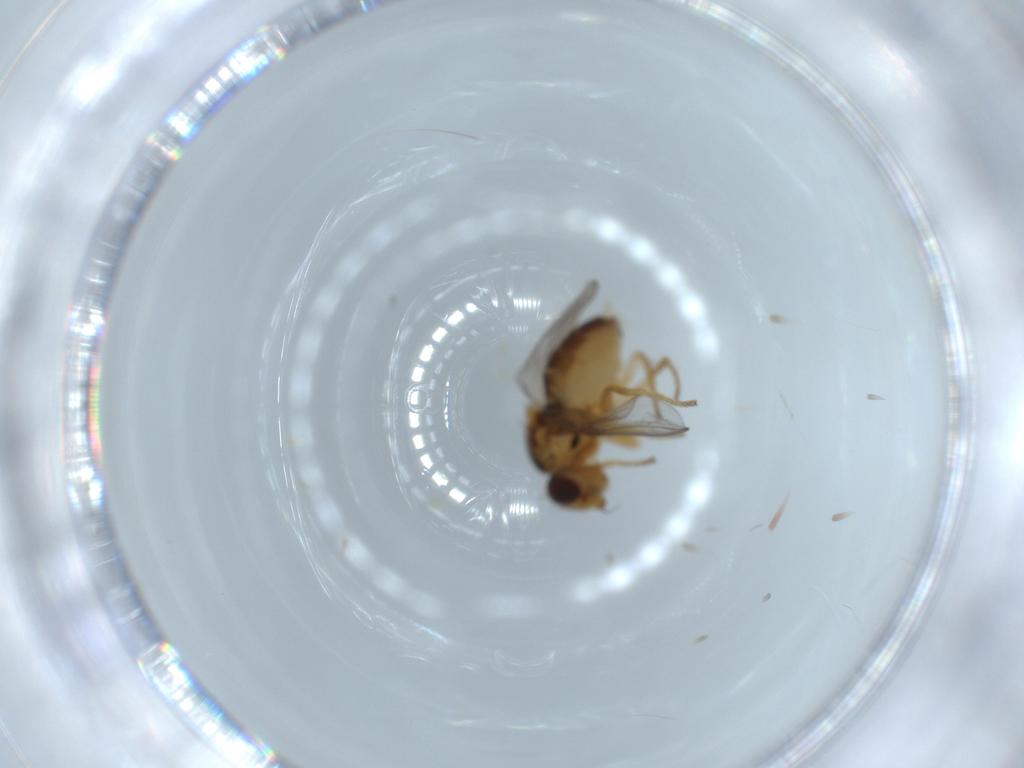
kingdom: Animalia
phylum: Arthropoda
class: Insecta
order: Diptera
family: Chloropidae
